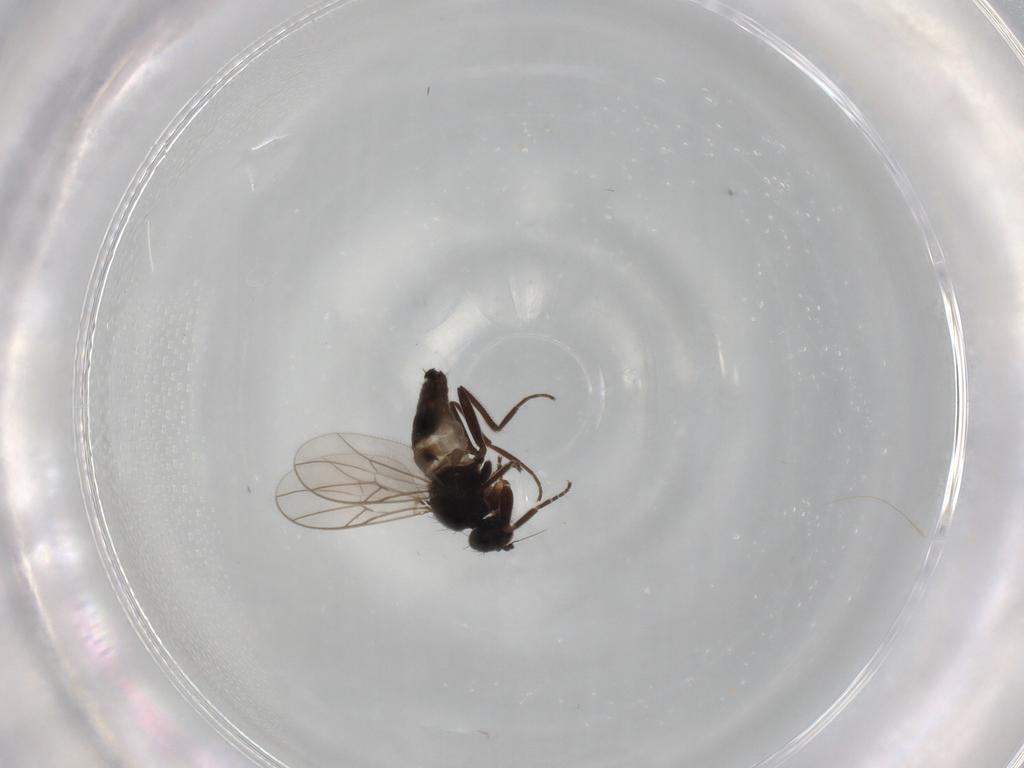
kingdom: Animalia
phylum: Arthropoda
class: Insecta
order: Diptera
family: Hybotidae
